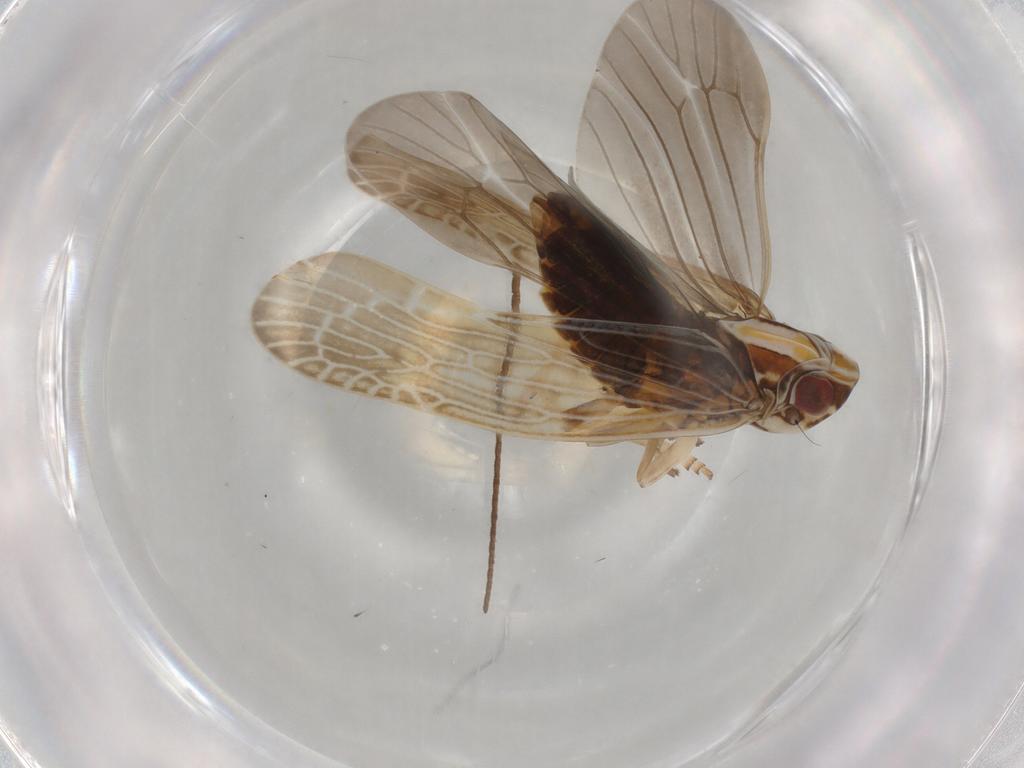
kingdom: Animalia
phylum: Arthropoda
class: Insecta
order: Hemiptera
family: Achilidae
